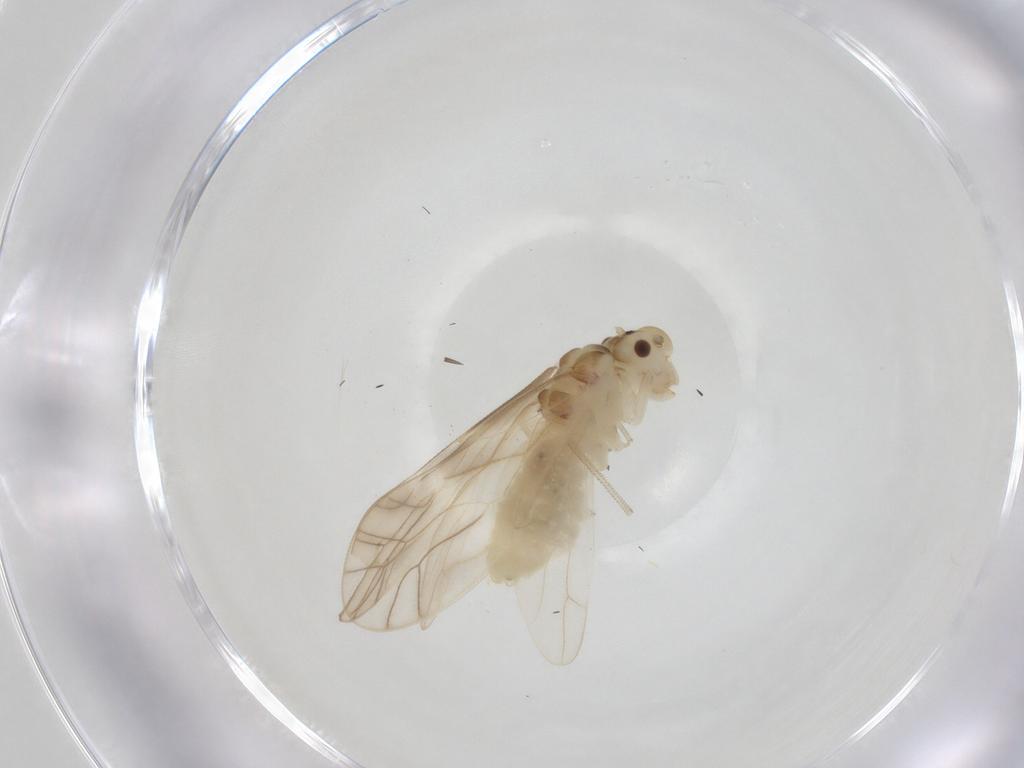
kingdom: Animalia
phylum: Arthropoda
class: Insecta
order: Psocodea
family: Caeciliusidae
